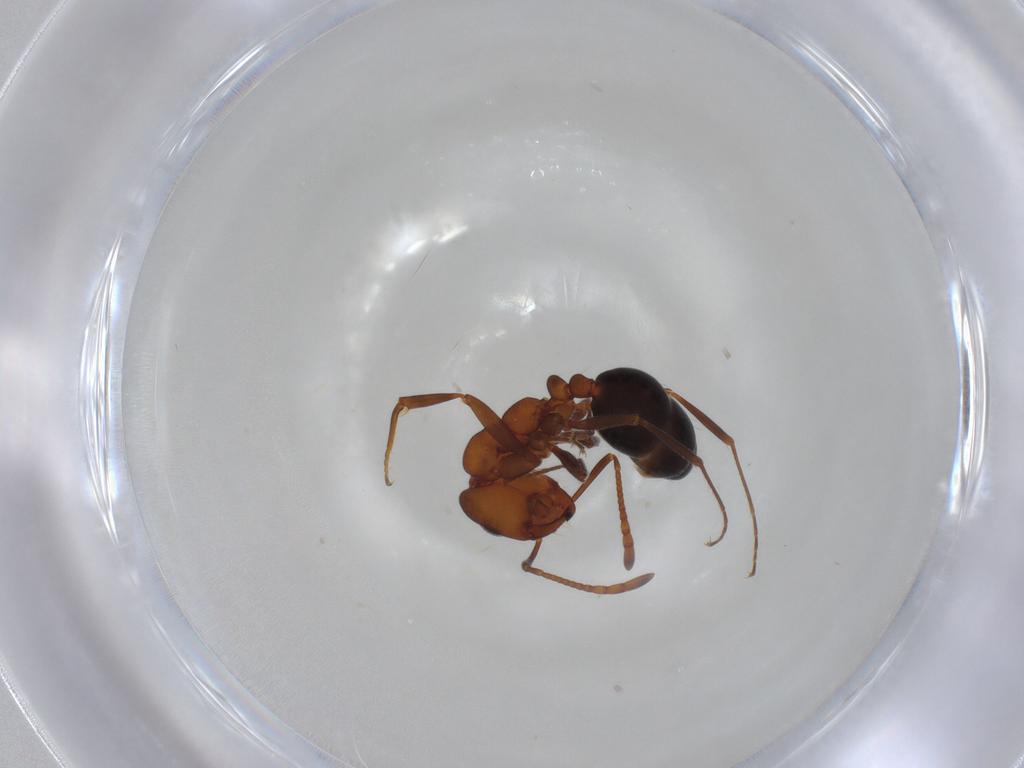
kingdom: Animalia
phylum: Arthropoda
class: Insecta
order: Hymenoptera
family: Formicidae
